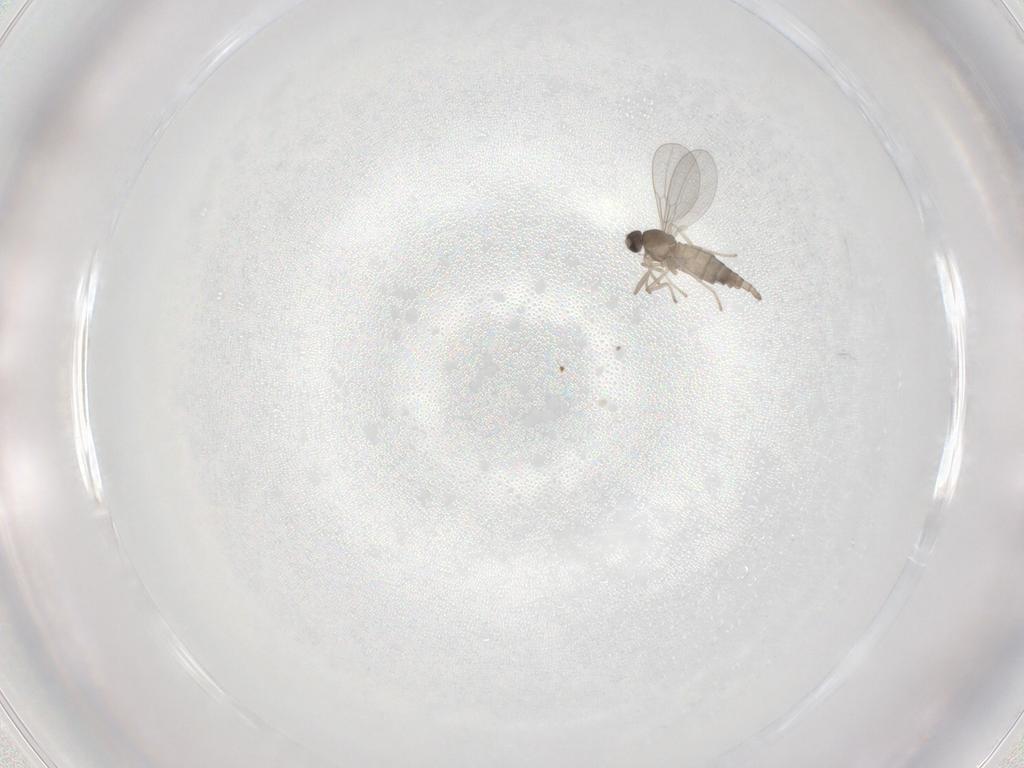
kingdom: Animalia
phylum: Arthropoda
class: Insecta
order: Diptera
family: Cecidomyiidae
